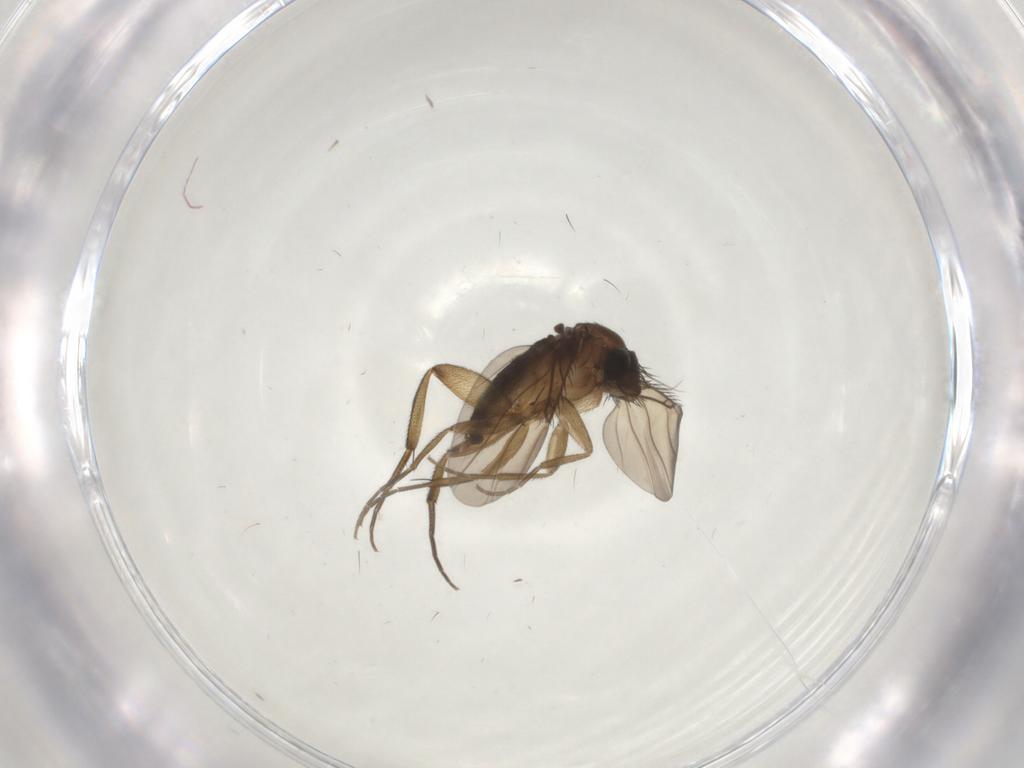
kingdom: Animalia
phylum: Arthropoda
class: Insecta
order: Diptera
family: Phoridae
